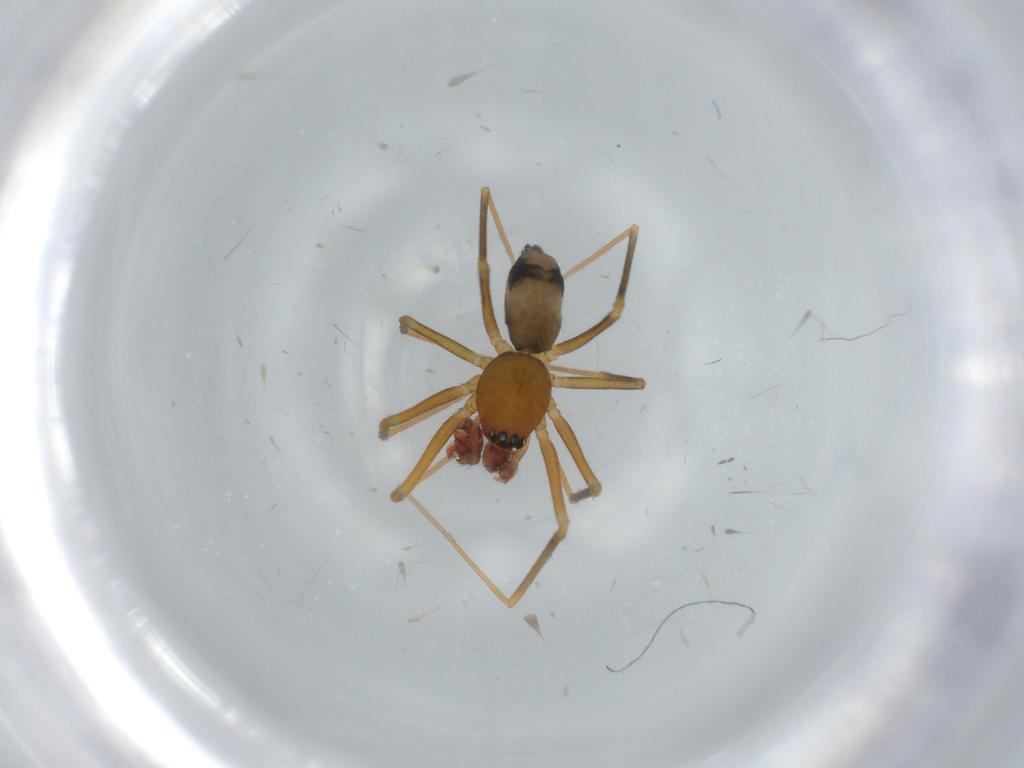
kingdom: Animalia
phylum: Arthropoda
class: Arachnida
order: Araneae
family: Linyphiidae
